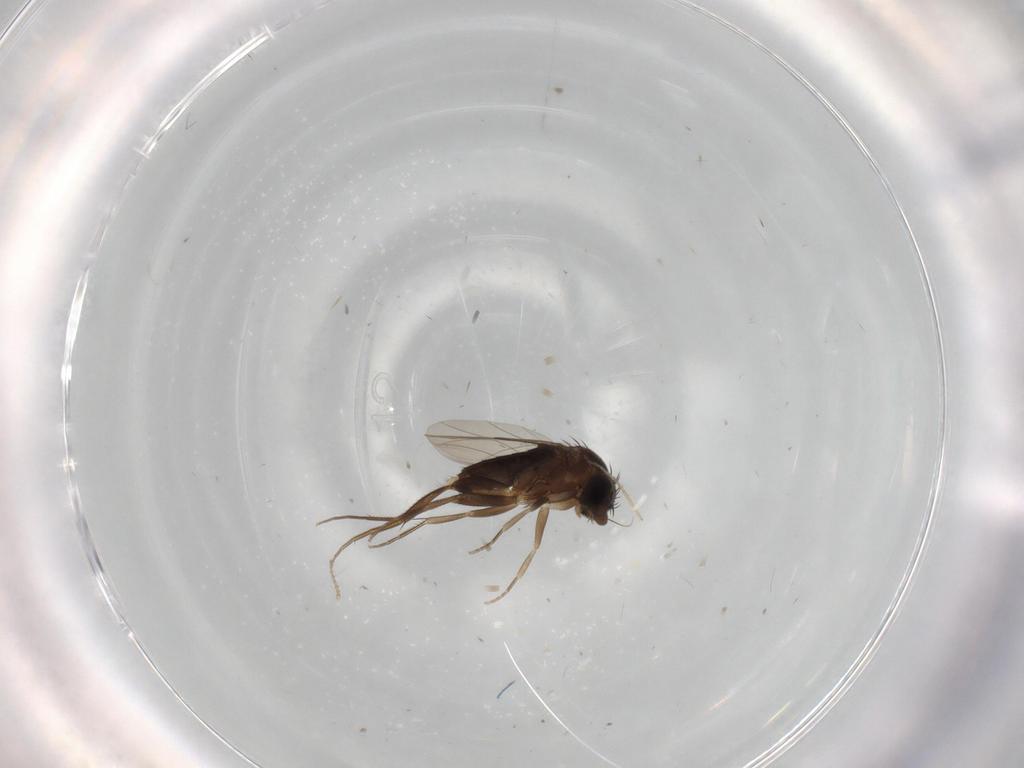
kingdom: Animalia
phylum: Arthropoda
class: Insecta
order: Diptera
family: Phoridae
